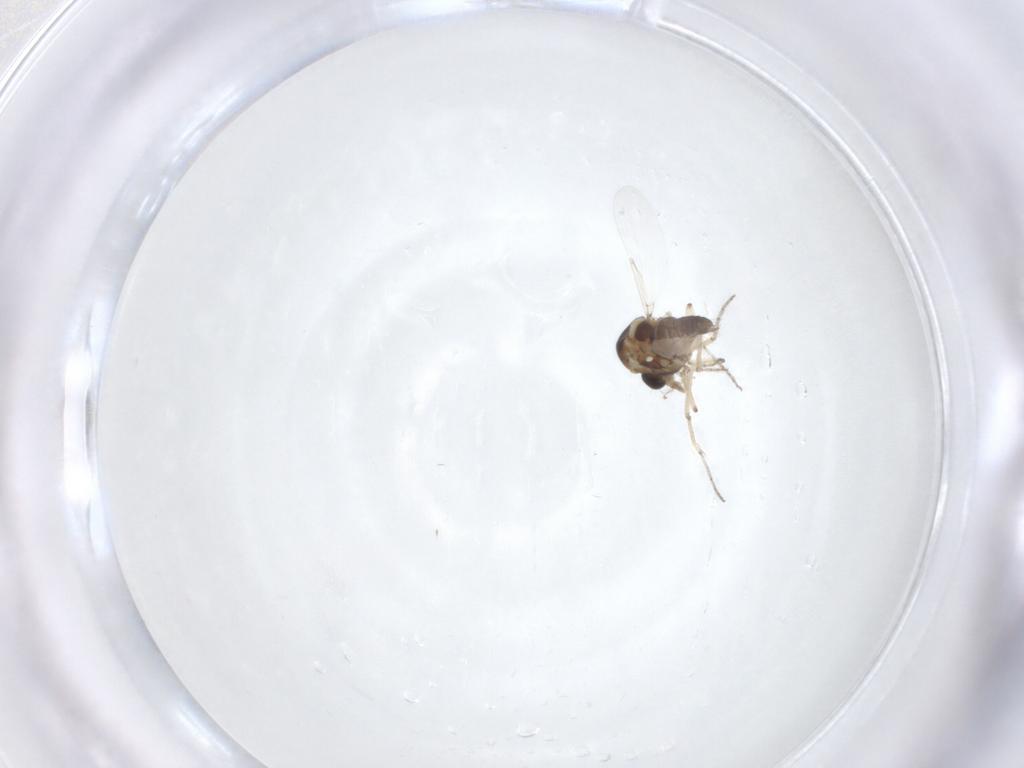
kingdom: Animalia
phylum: Arthropoda
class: Insecta
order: Diptera
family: Ceratopogonidae
